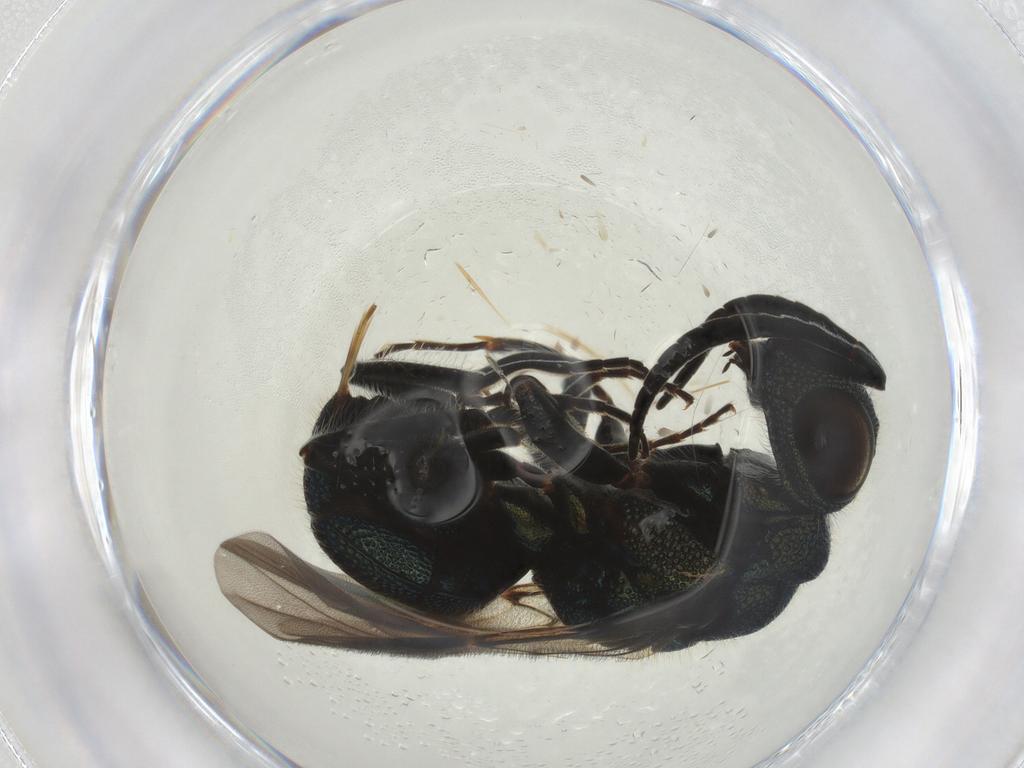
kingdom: Animalia
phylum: Arthropoda
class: Insecta
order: Hymenoptera
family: Chrysididae
